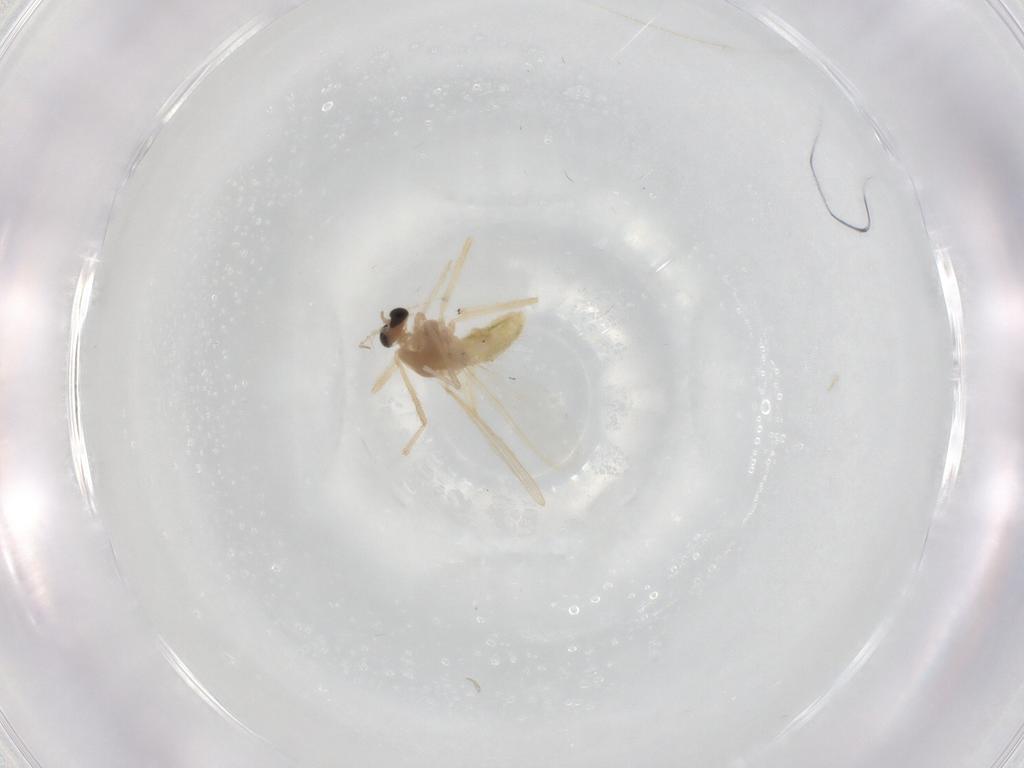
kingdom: Animalia
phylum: Arthropoda
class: Insecta
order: Diptera
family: Chironomidae
